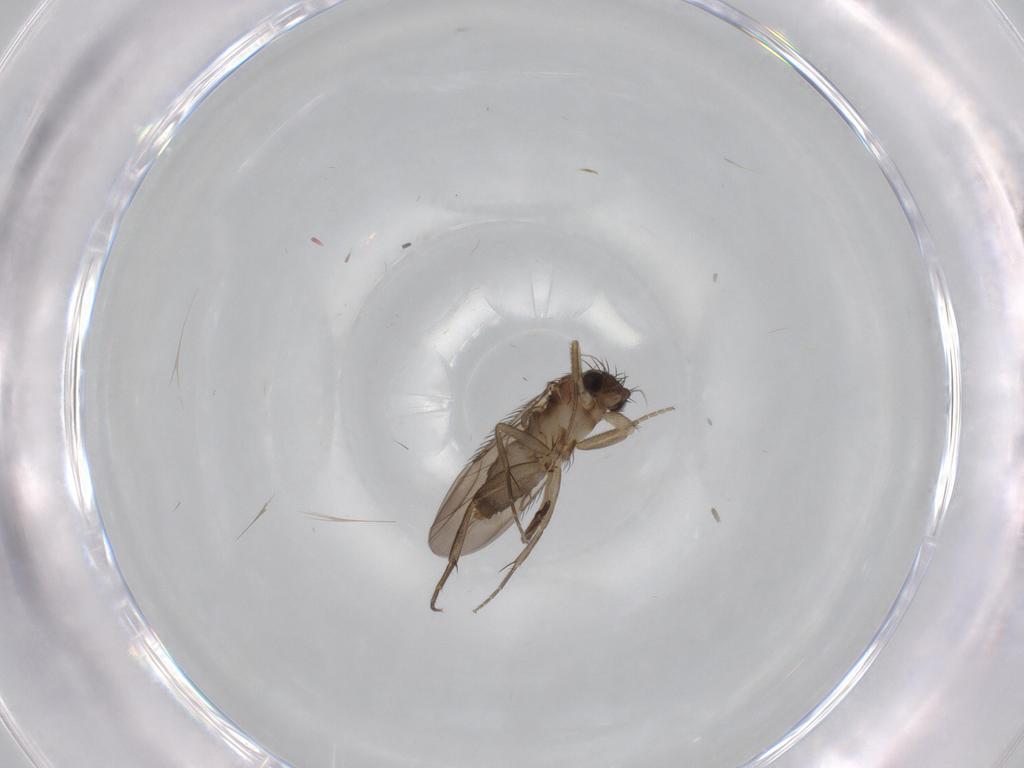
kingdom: Animalia
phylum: Arthropoda
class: Insecta
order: Diptera
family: Phoridae
